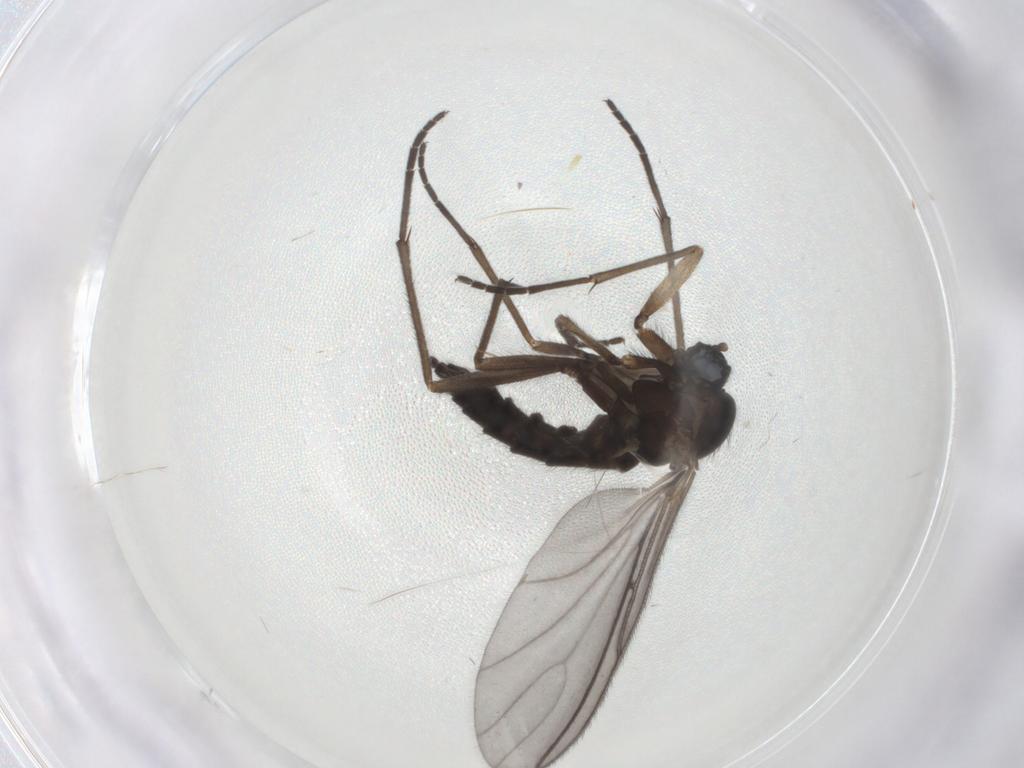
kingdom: Animalia
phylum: Arthropoda
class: Insecta
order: Diptera
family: Sciaridae
